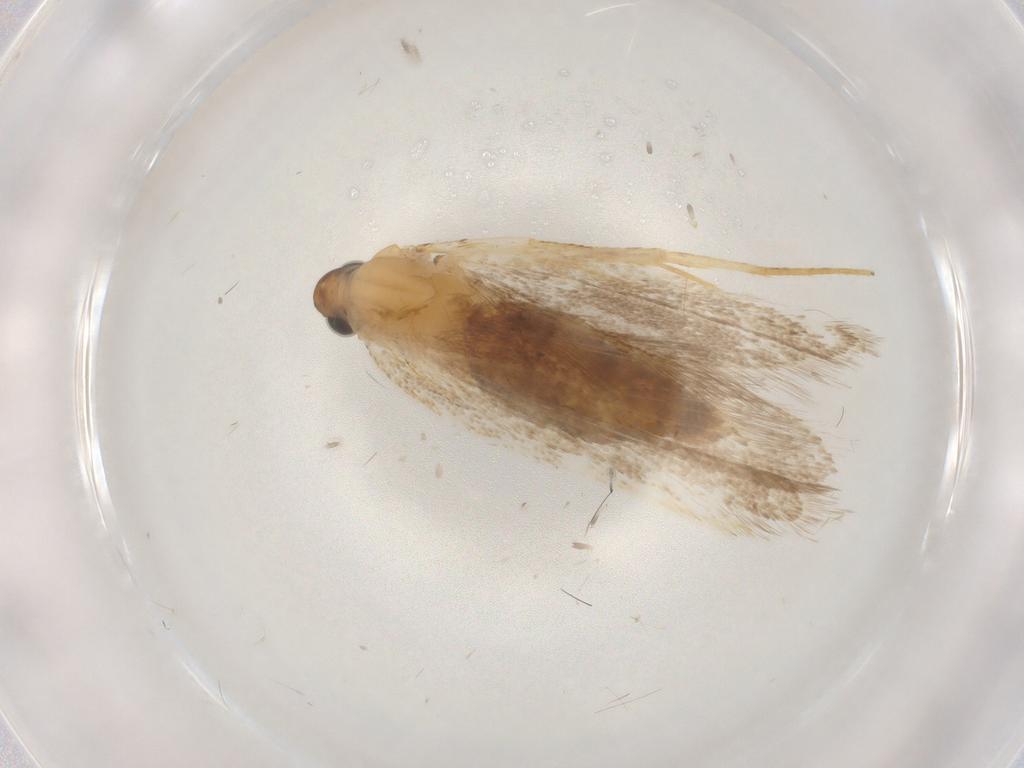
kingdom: Animalia
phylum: Arthropoda
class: Insecta
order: Lepidoptera
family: Lecithoceridae
